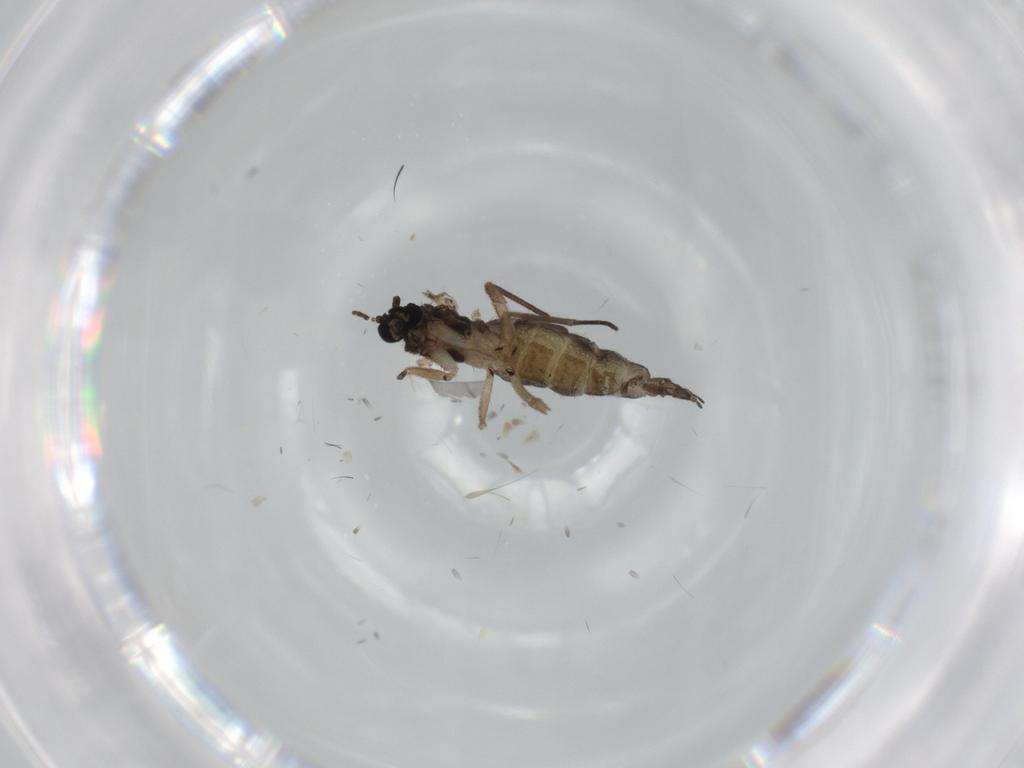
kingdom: Animalia
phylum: Arthropoda
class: Insecta
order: Diptera
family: Sciaridae
